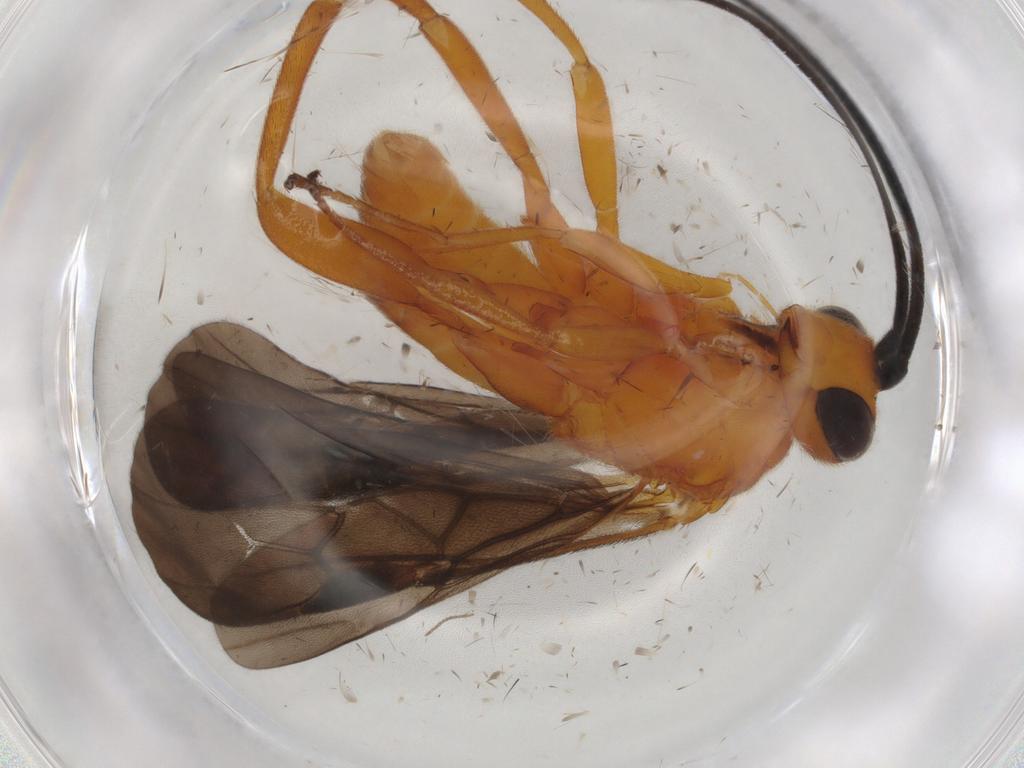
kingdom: Animalia
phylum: Arthropoda
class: Insecta
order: Hymenoptera
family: Braconidae
